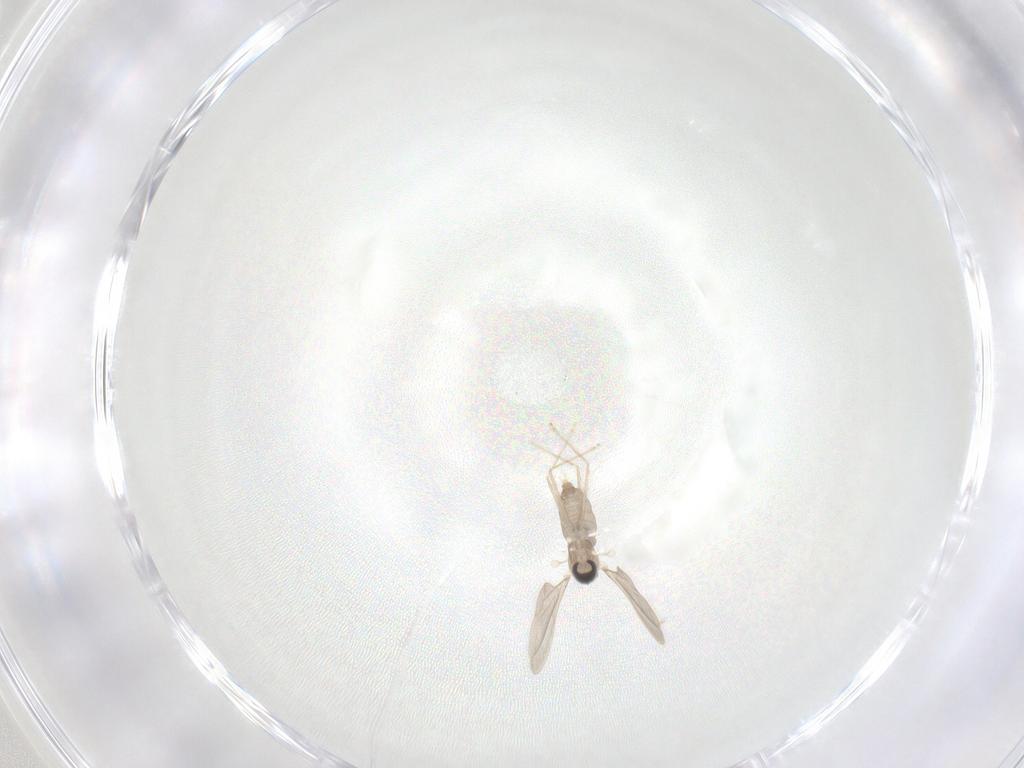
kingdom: Animalia
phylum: Arthropoda
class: Insecta
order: Diptera
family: Cecidomyiidae
